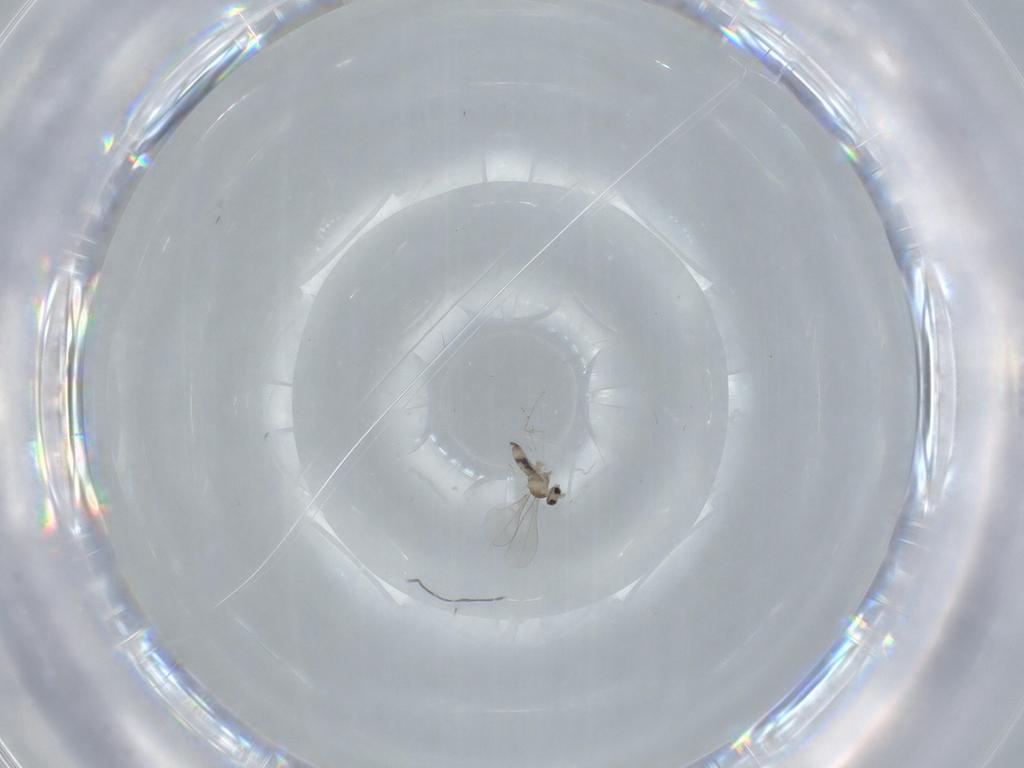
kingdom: Animalia
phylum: Arthropoda
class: Insecta
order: Diptera
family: Cecidomyiidae
